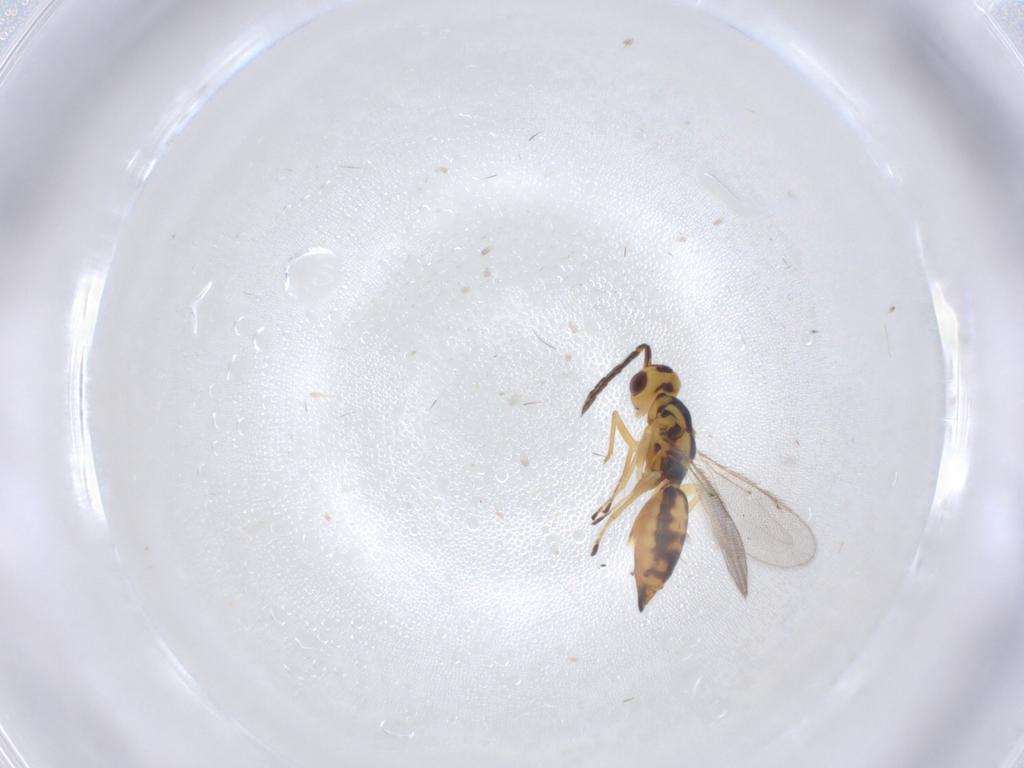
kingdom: Animalia
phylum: Arthropoda
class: Insecta
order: Hymenoptera
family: Eulophidae
